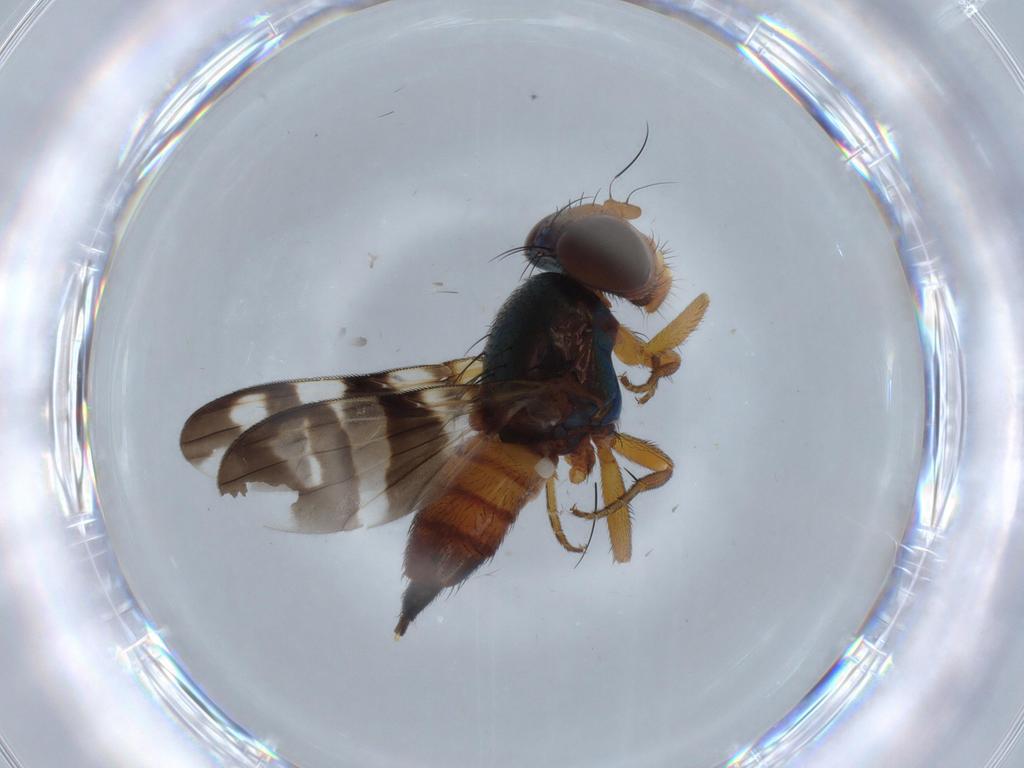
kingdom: Animalia
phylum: Arthropoda
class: Insecta
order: Diptera
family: Ulidiidae
